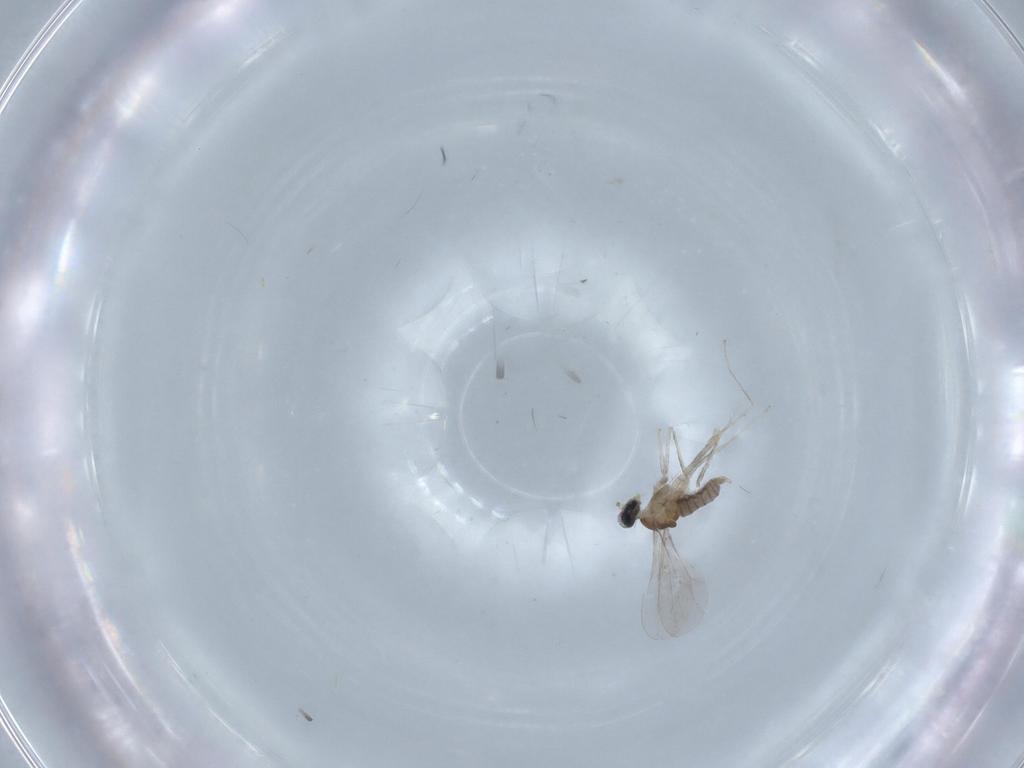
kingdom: Animalia
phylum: Arthropoda
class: Insecta
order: Diptera
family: Chironomidae
